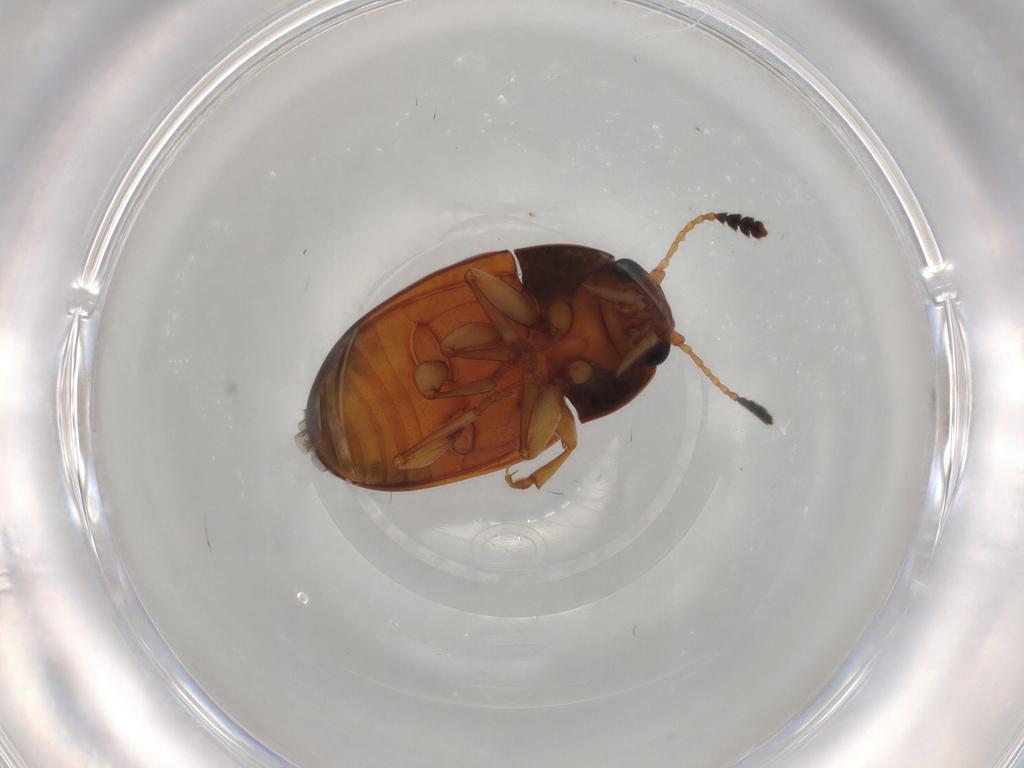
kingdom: Animalia
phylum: Arthropoda
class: Insecta
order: Coleoptera
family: Erotylidae
